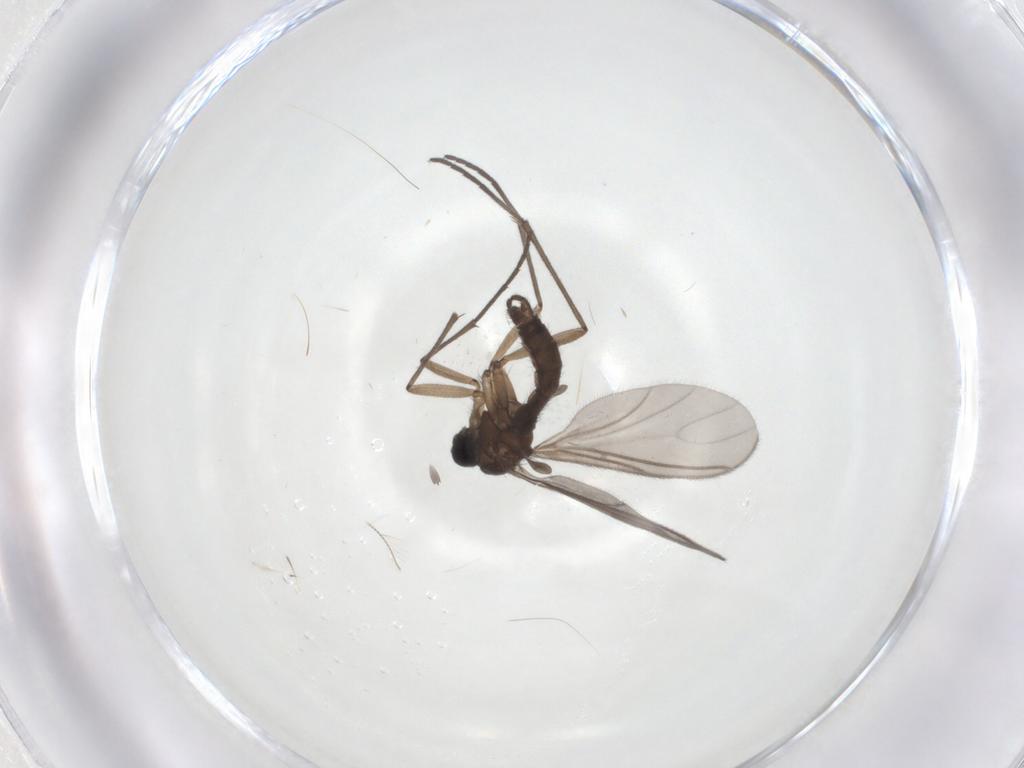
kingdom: Animalia
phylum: Arthropoda
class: Insecta
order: Diptera
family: Sciaridae
